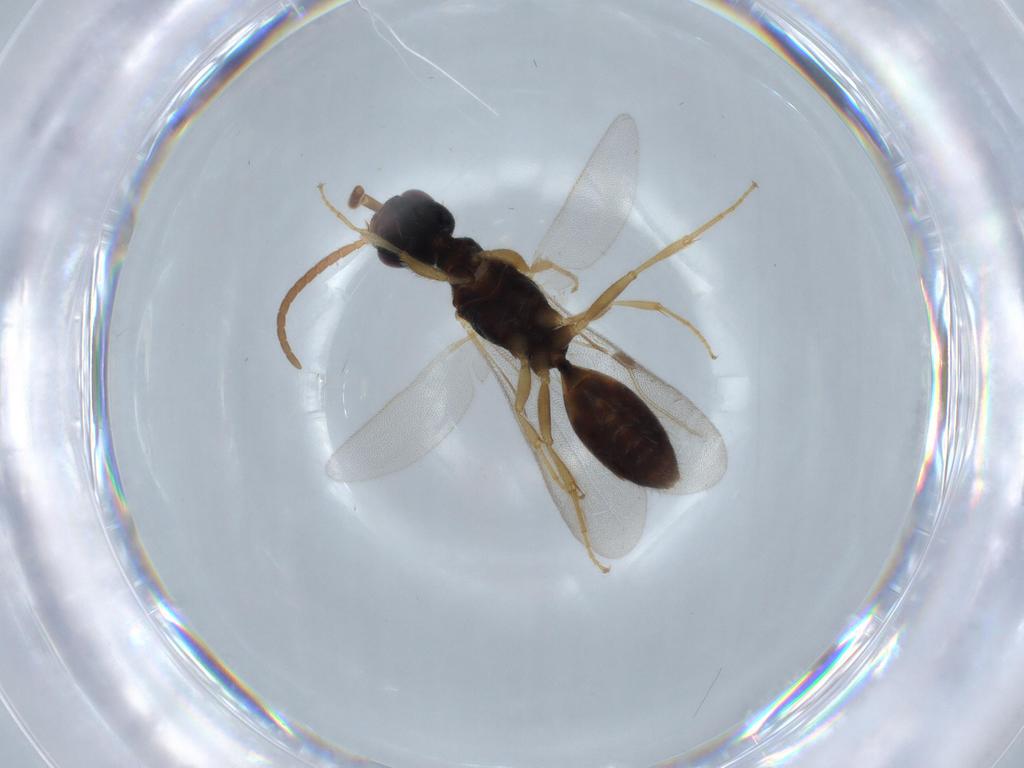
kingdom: Animalia
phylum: Arthropoda
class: Insecta
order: Hymenoptera
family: Bethylidae
